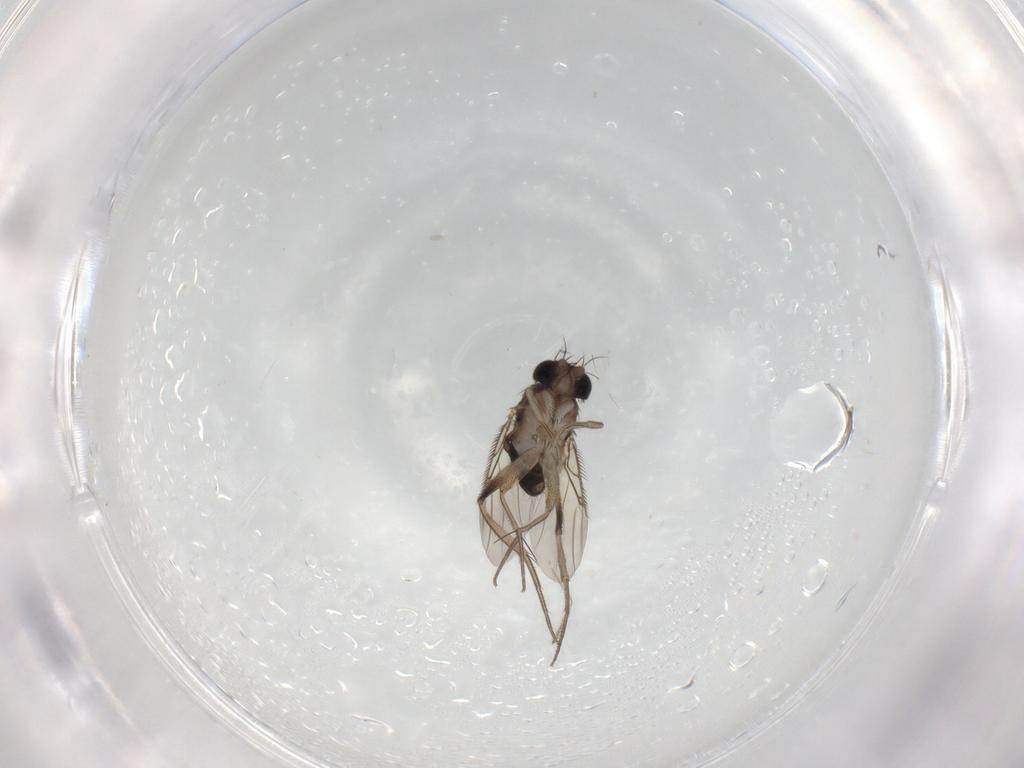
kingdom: Animalia
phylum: Arthropoda
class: Insecta
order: Diptera
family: Phoridae
